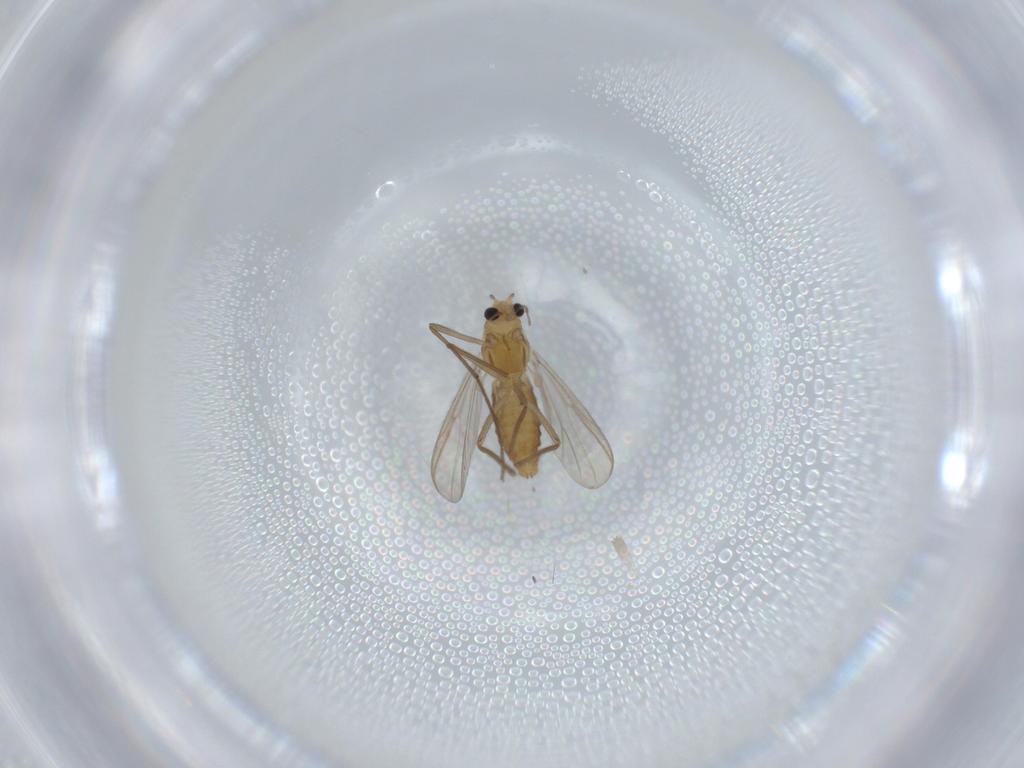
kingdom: Animalia
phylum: Arthropoda
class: Insecta
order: Diptera
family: Chironomidae
